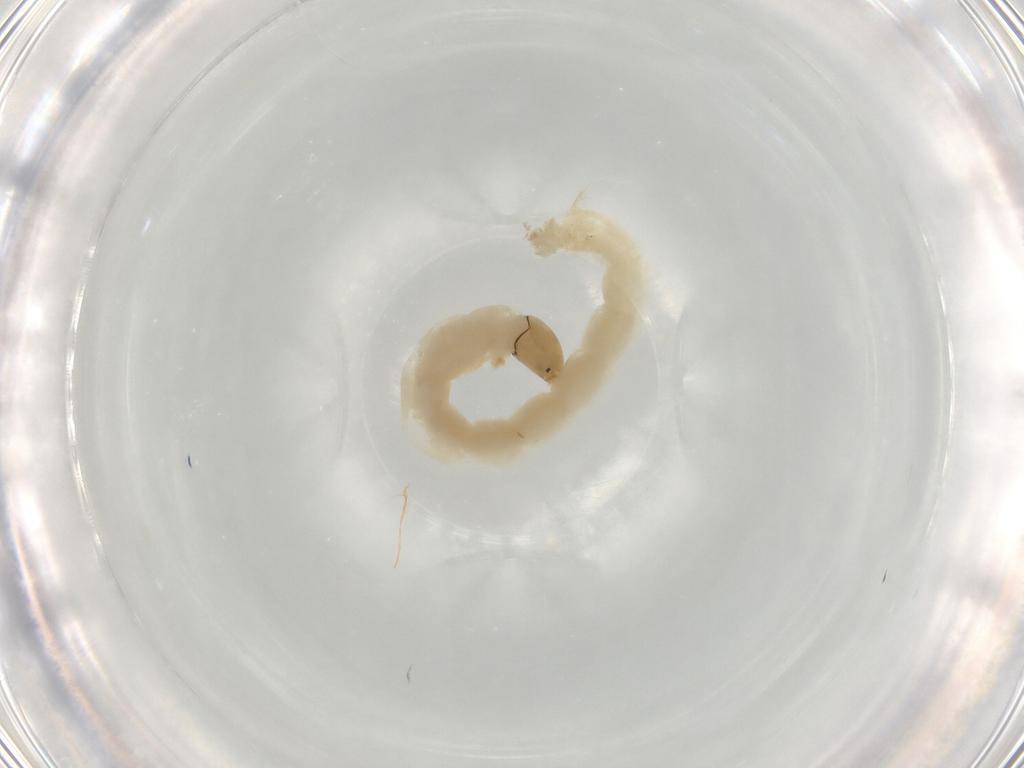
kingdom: Animalia
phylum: Arthropoda
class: Insecta
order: Diptera
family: Chironomidae
